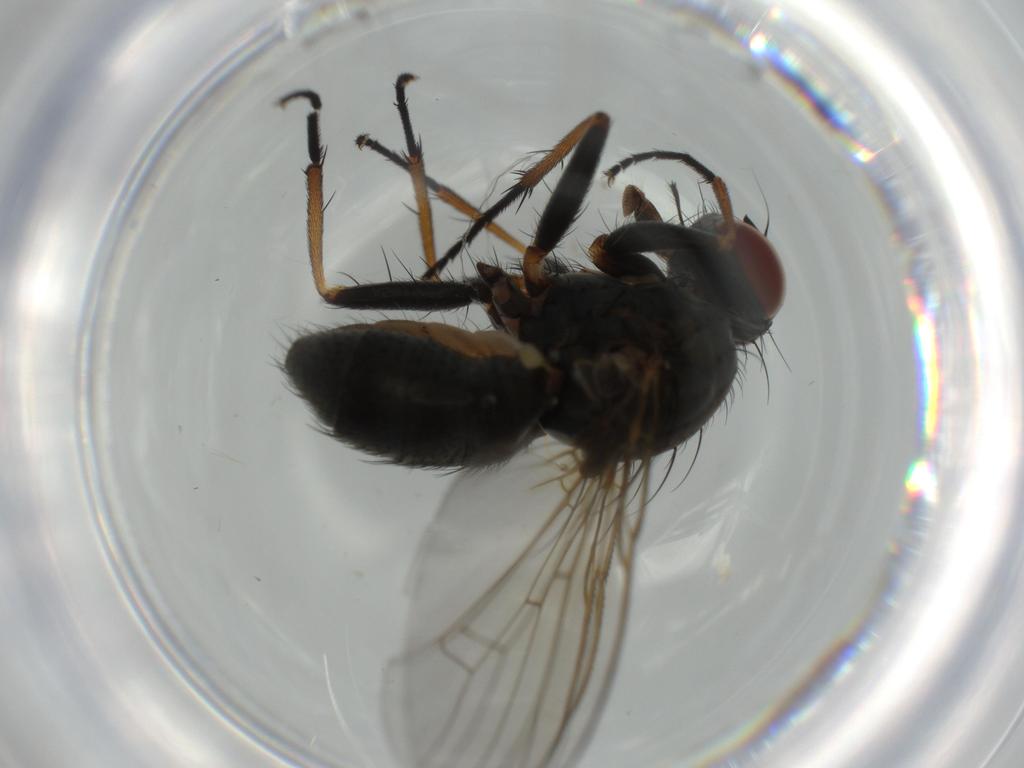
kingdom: Animalia
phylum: Arthropoda
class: Insecta
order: Diptera
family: Muscidae
